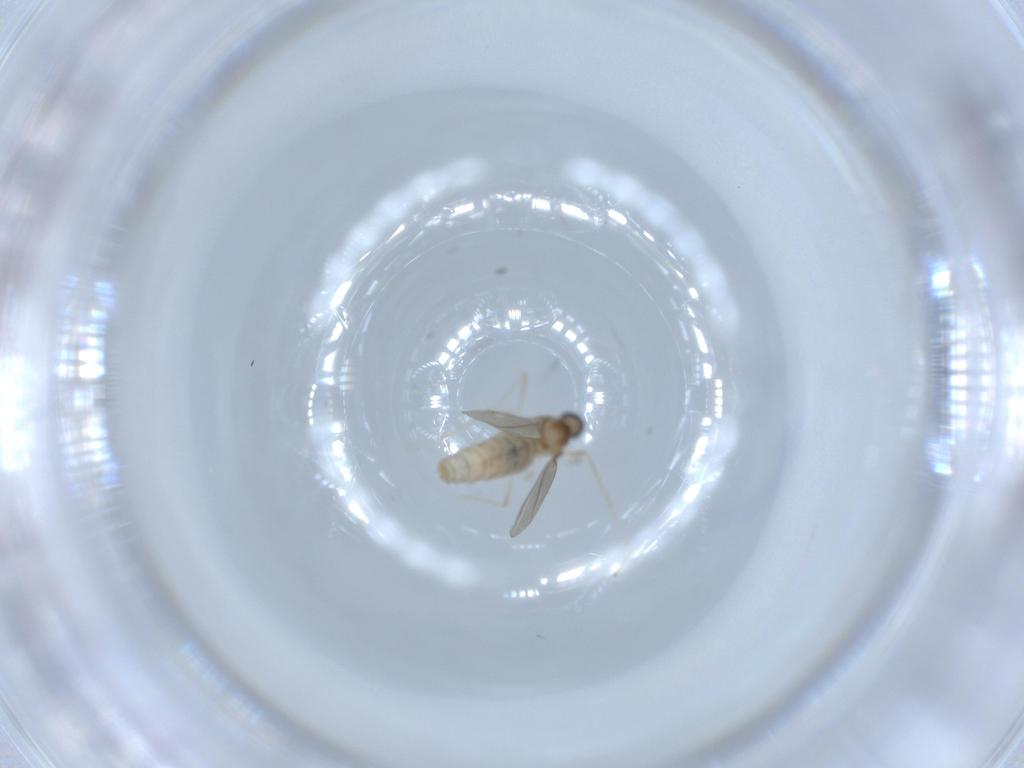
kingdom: Animalia
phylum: Arthropoda
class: Insecta
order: Diptera
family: Cecidomyiidae
